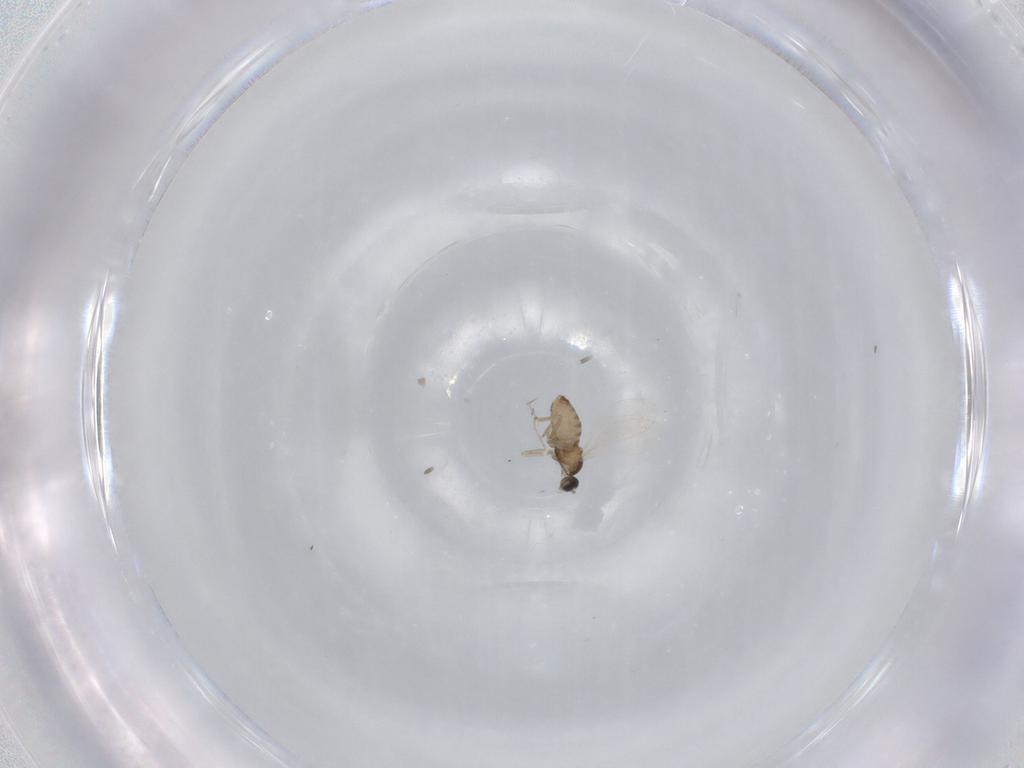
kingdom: Animalia
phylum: Arthropoda
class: Insecta
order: Diptera
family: Cecidomyiidae
